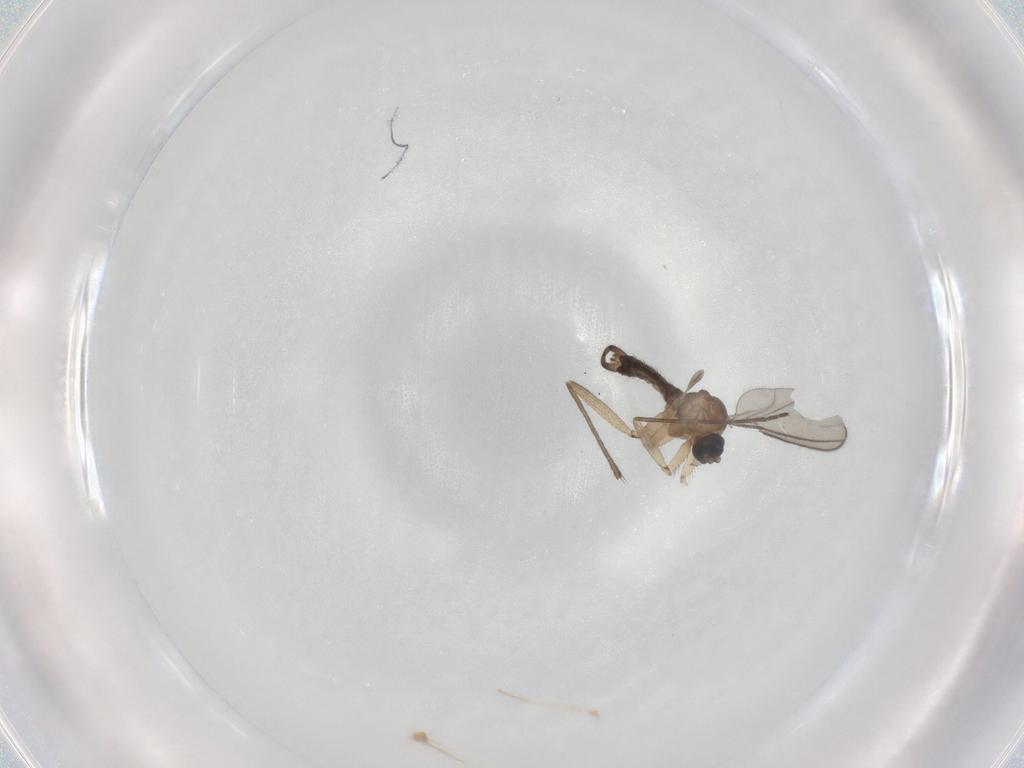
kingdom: Animalia
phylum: Arthropoda
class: Insecta
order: Diptera
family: Sciaridae
